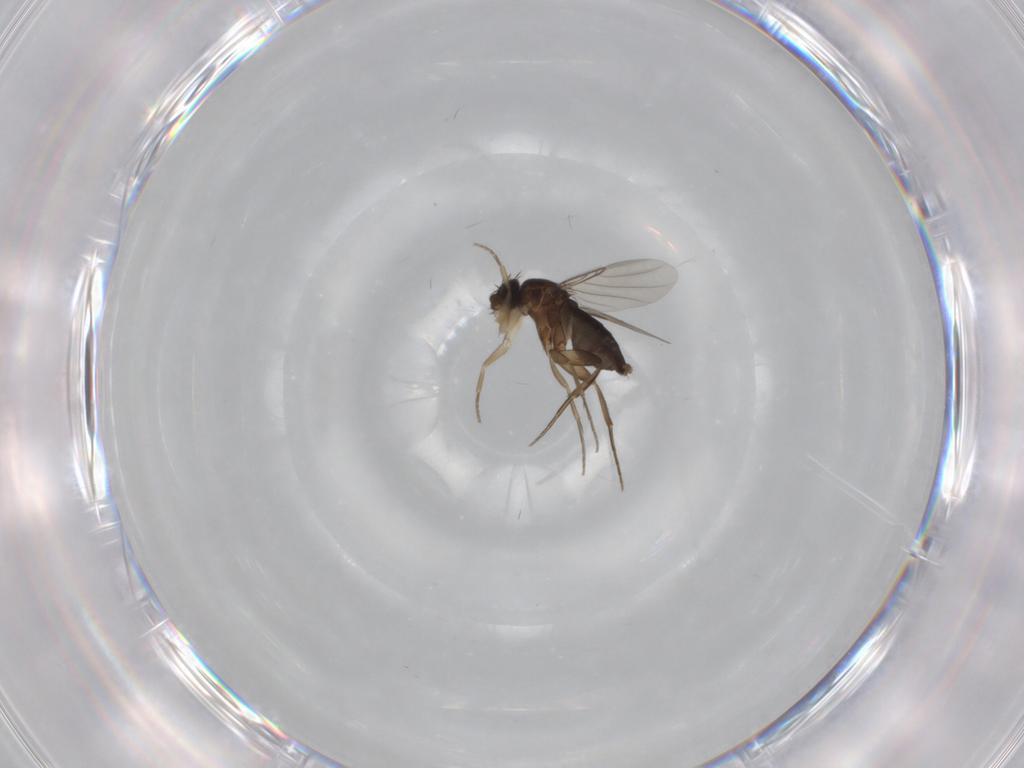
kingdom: Animalia
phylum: Arthropoda
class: Insecta
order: Diptera
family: Phoridae
